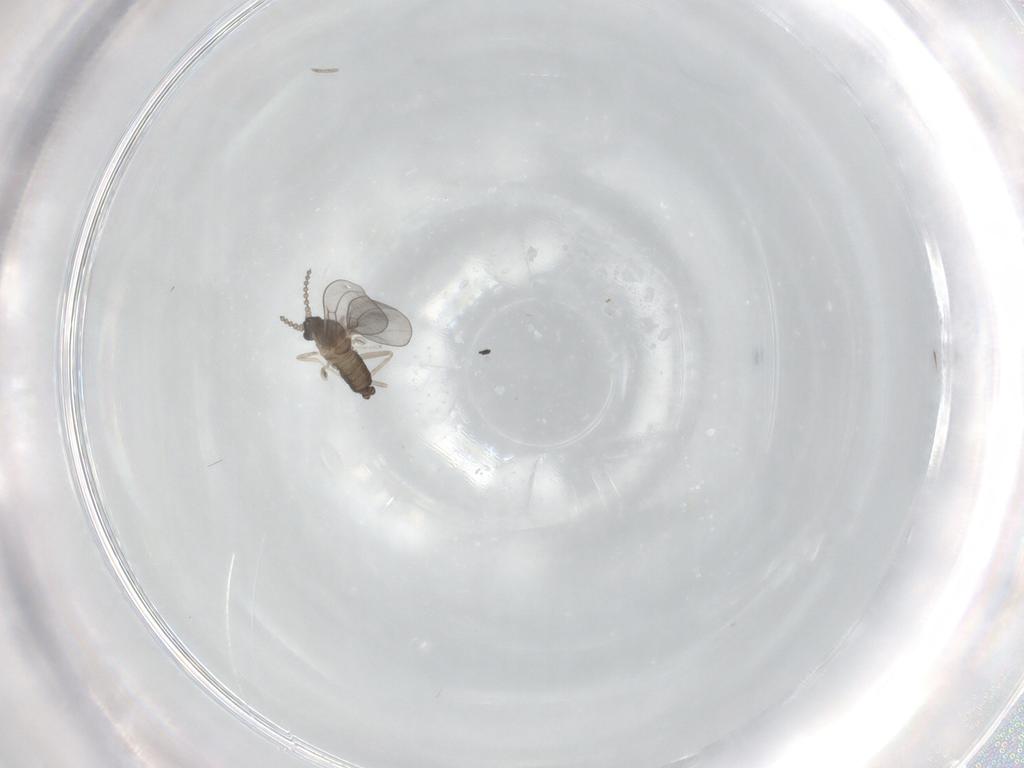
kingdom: Animalia
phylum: Arthropoda
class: Insecta
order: Diptera
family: Cecidomyiidae
